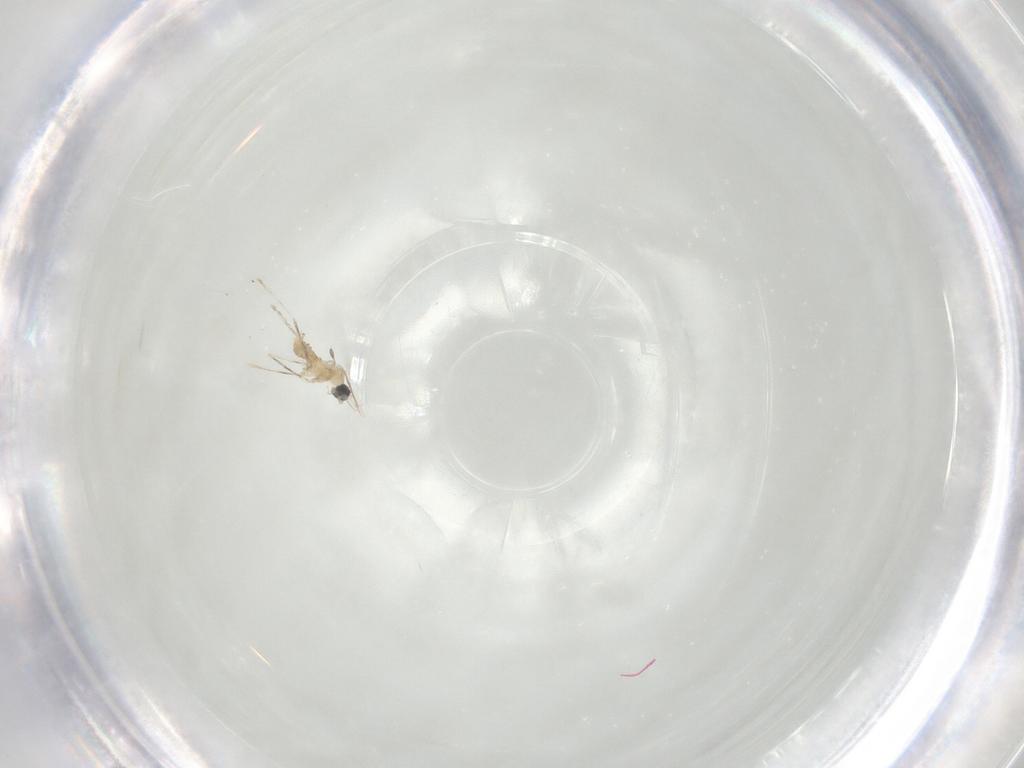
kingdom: Animalia
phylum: Arthropoda
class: Insecta
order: Diptera
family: Cecidomyiidae
